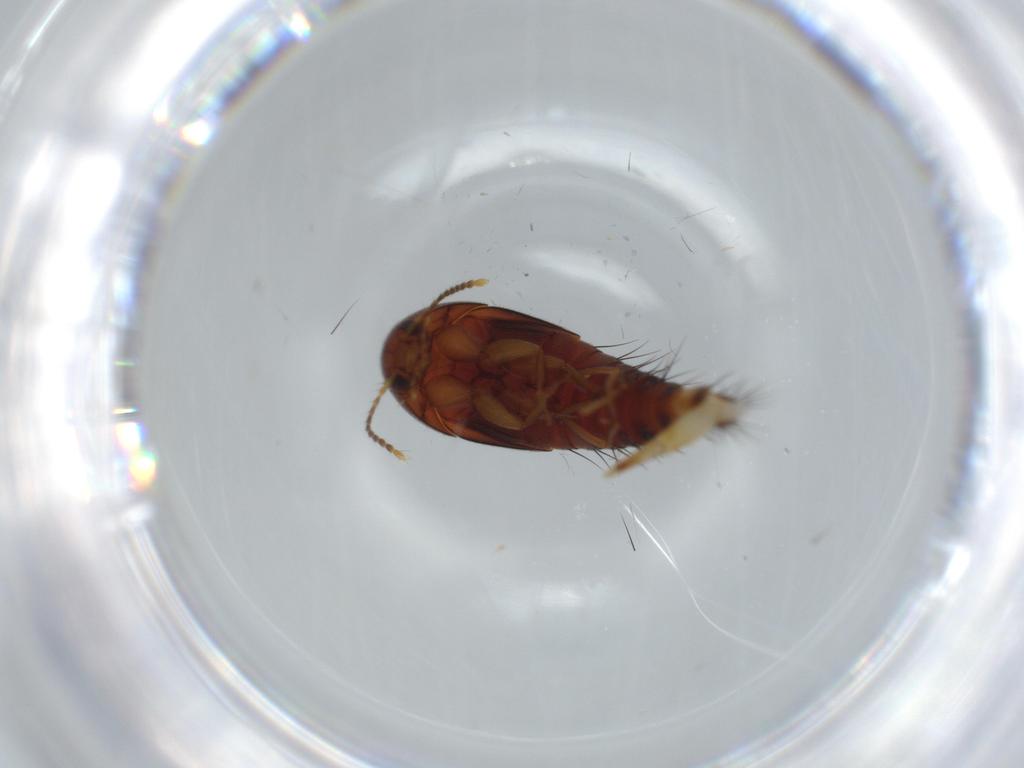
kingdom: Animalia
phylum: Arthropoda
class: Insecta
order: Coleoptera
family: Staphylinidae
